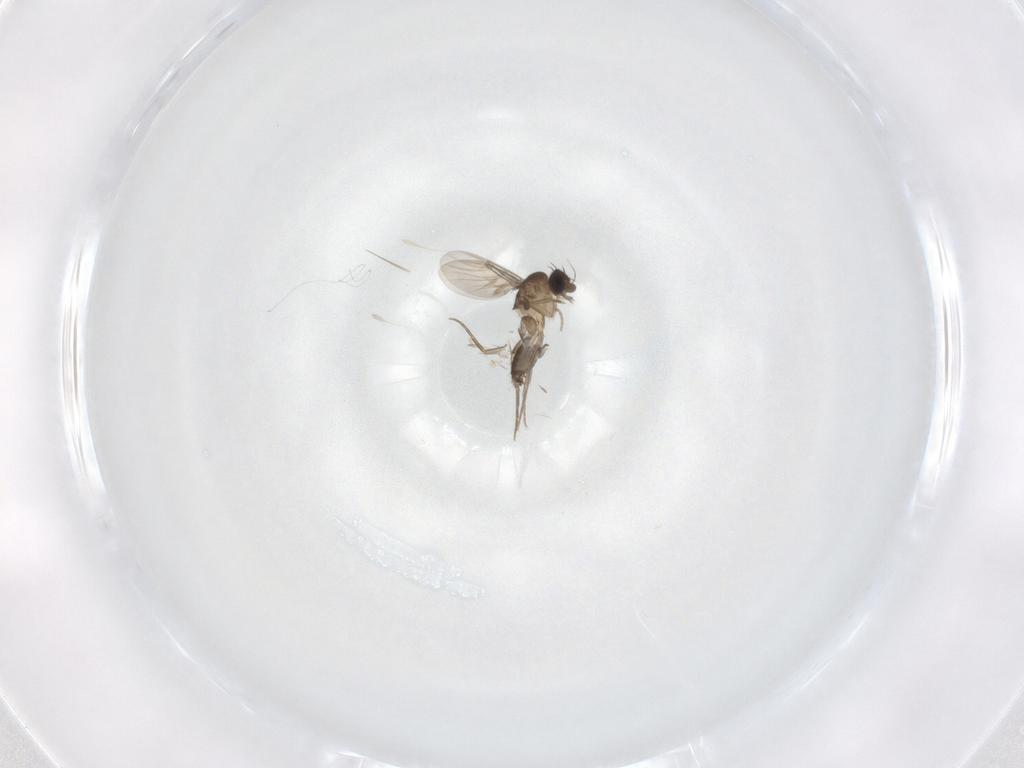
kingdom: Animalia
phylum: Arthropoda
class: Insecta
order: Diptera
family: Phoridae
